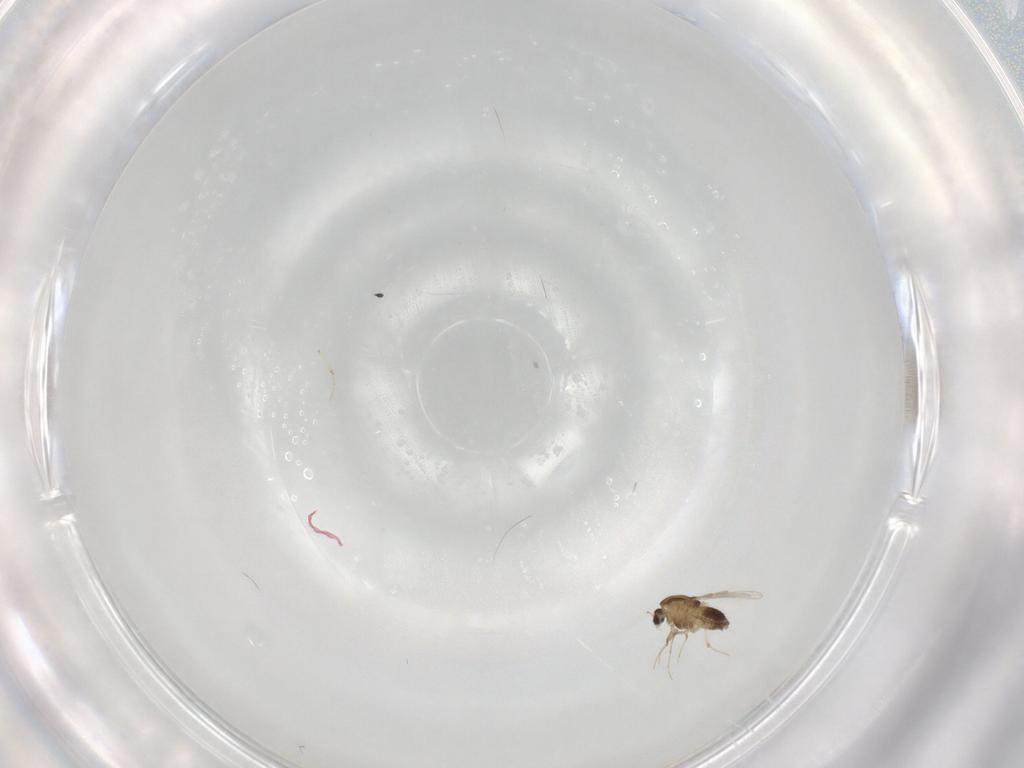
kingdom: Animalia
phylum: Arthropoda
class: Insecta
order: Diptera
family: Chironomidae
